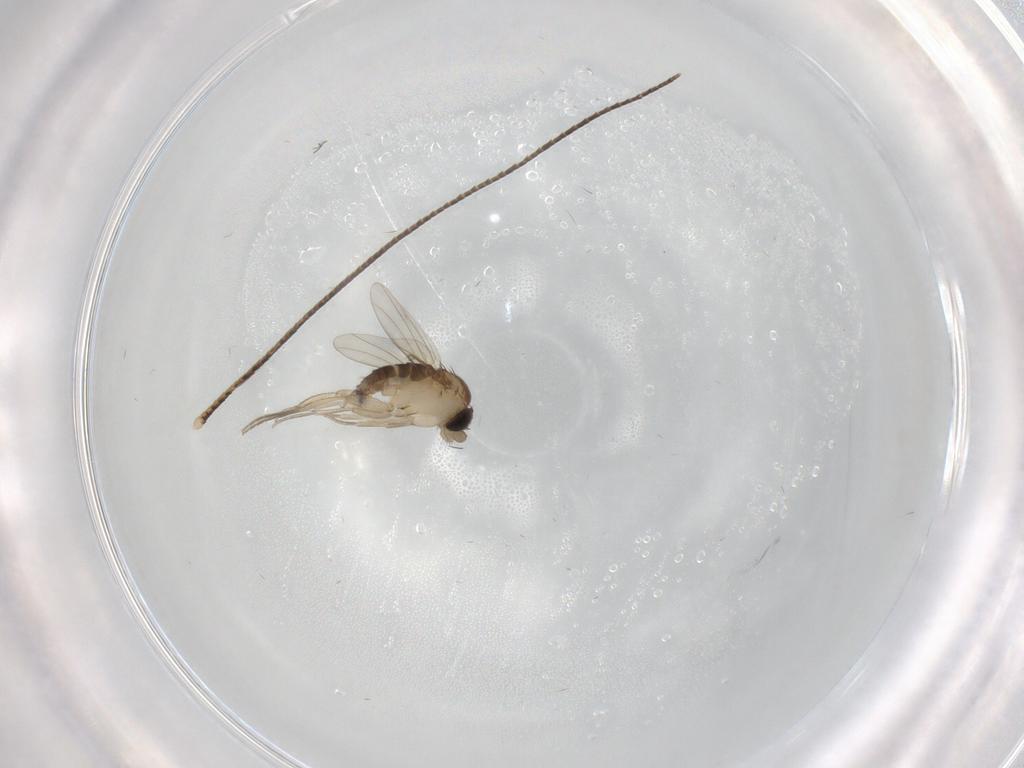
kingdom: Animalia
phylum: Arthropoda
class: Insecta
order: Diptera
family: Phoridae
